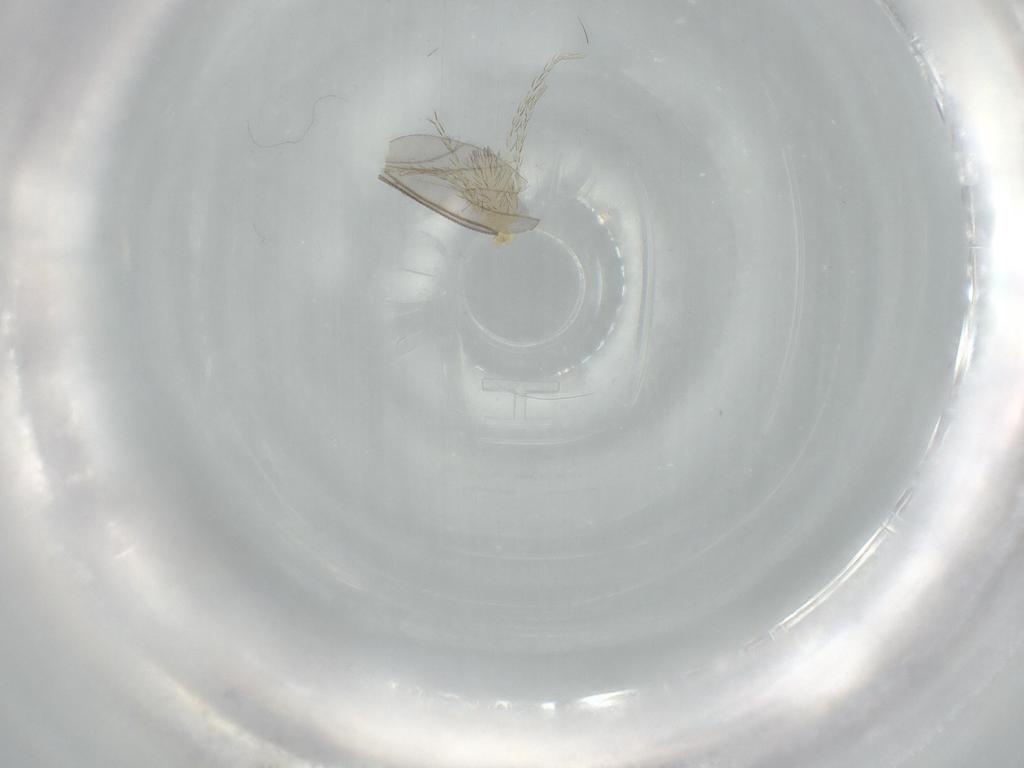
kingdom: Animalia
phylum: Arthropoda
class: Arachnida
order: Trombidiformes
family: Erythraeidae
